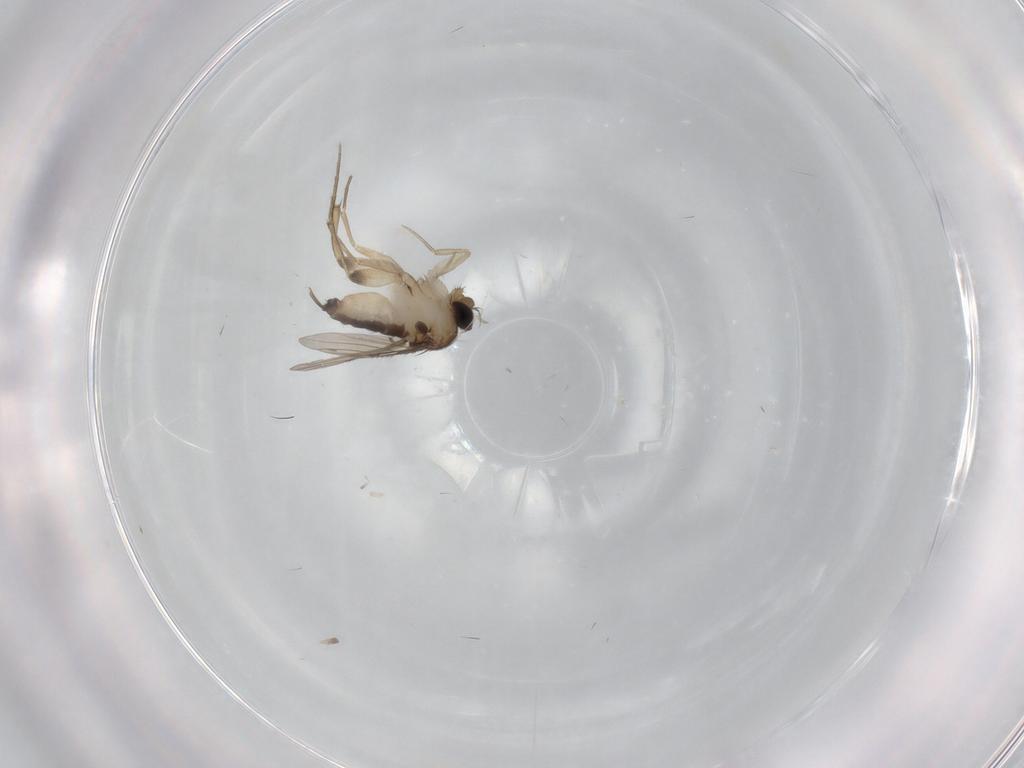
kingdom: Animalia
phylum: Arthropoda
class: Insecta
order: Diptera
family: Phoridae
